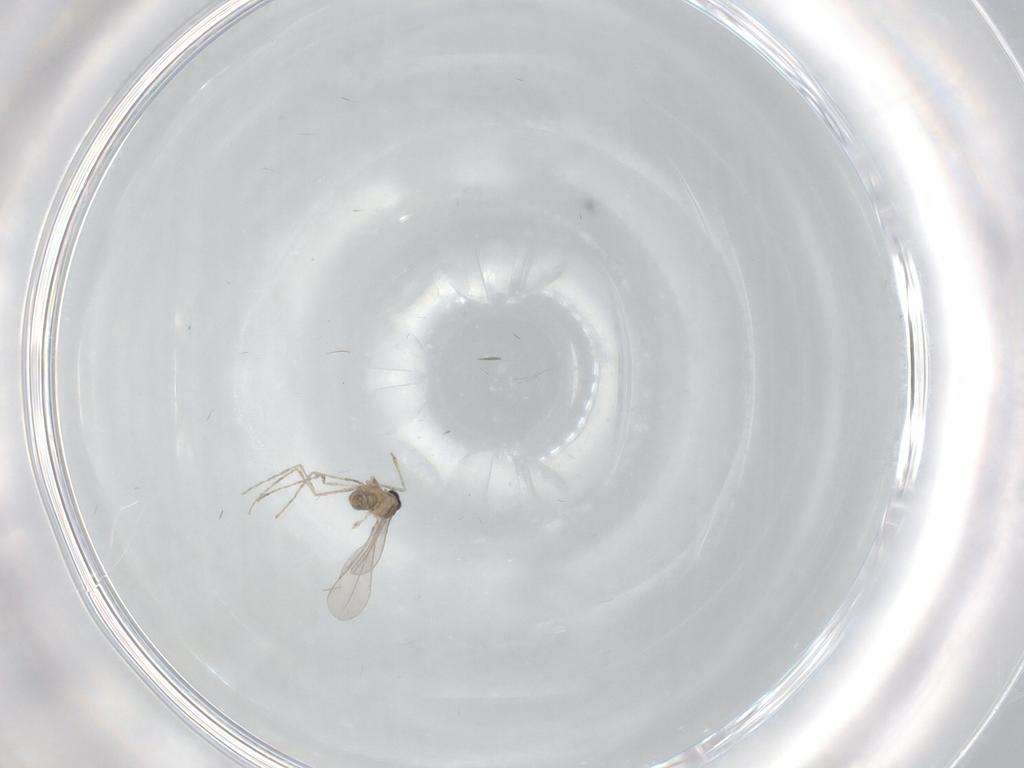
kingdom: Animalia
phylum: Arthropoda
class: Insecta
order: Diptera
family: Cecidomyiidae
